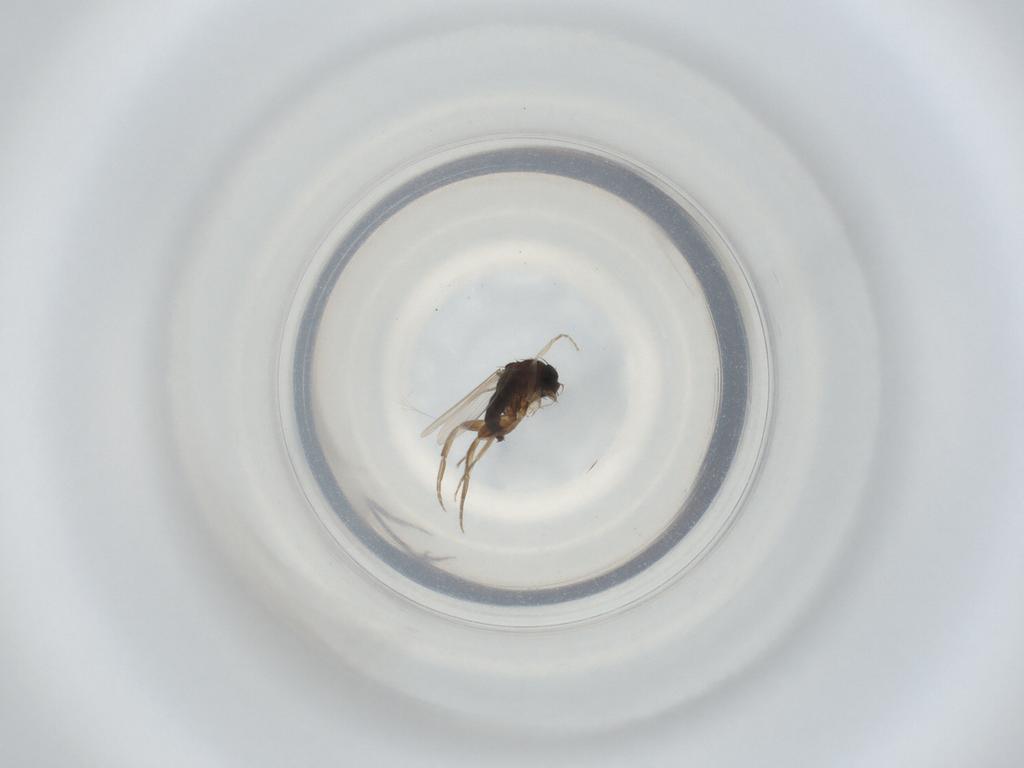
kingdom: Animalia
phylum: Arthropoda
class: Insecta
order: Diptera
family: Phoridae
